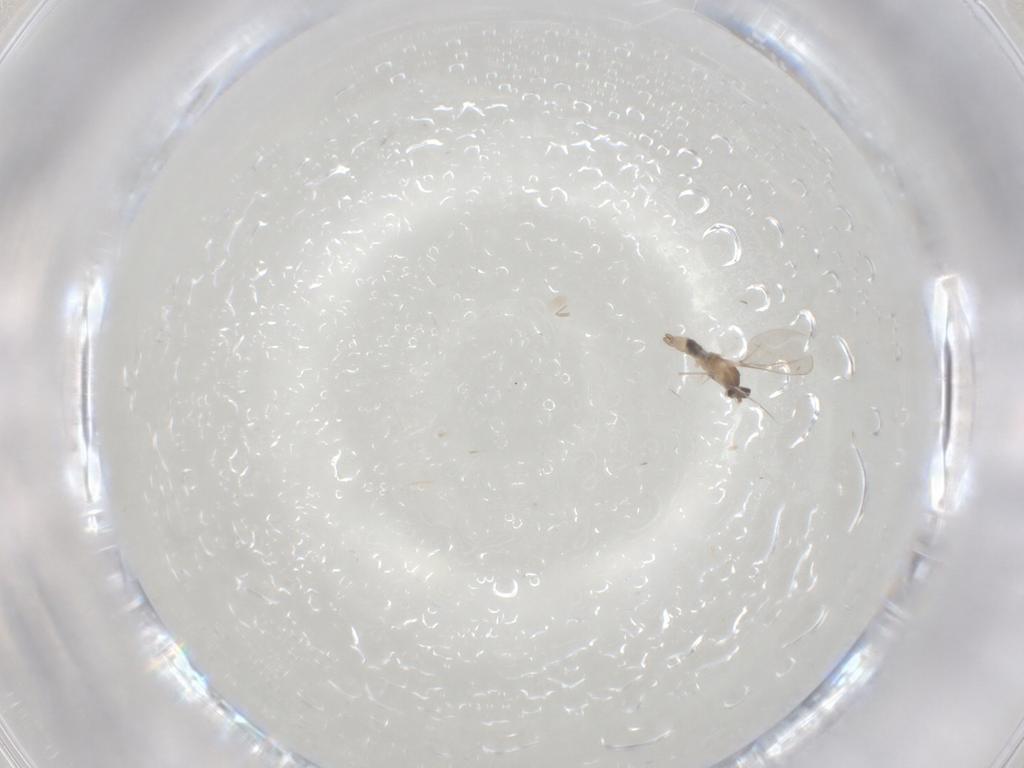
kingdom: Animalia
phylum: Arthropoda
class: Insecta
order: Diptera
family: Cecidomyiidae
